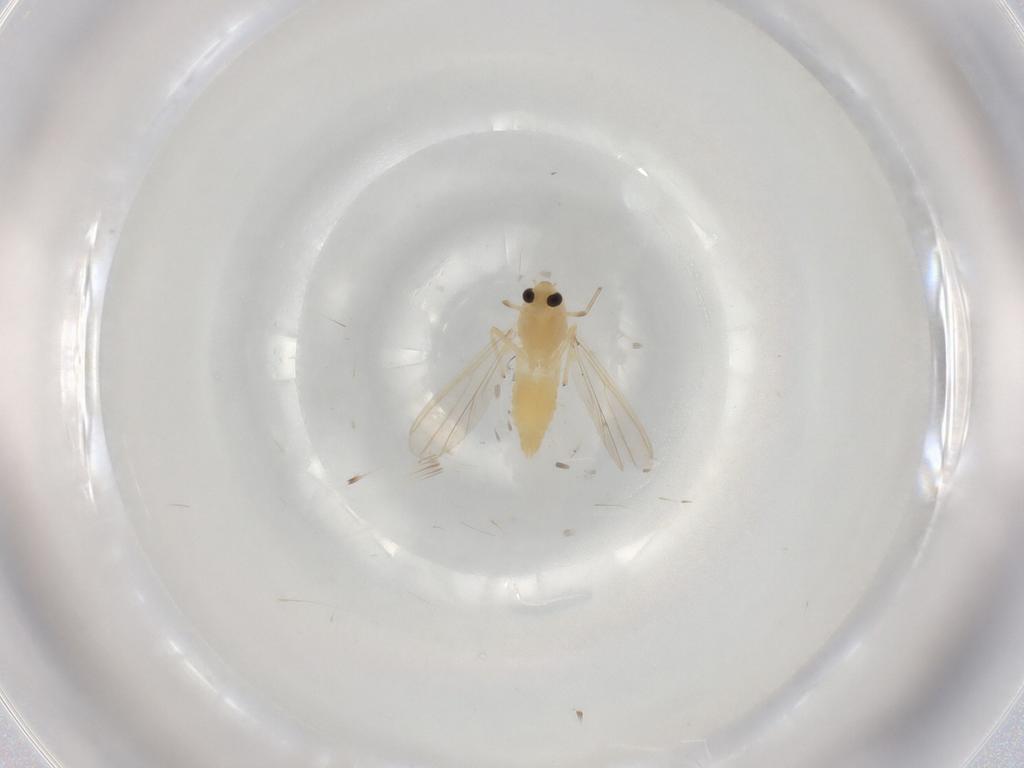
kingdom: Animalia
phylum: Arthropoda
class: Insecta
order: Diptera
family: Chironomidae
